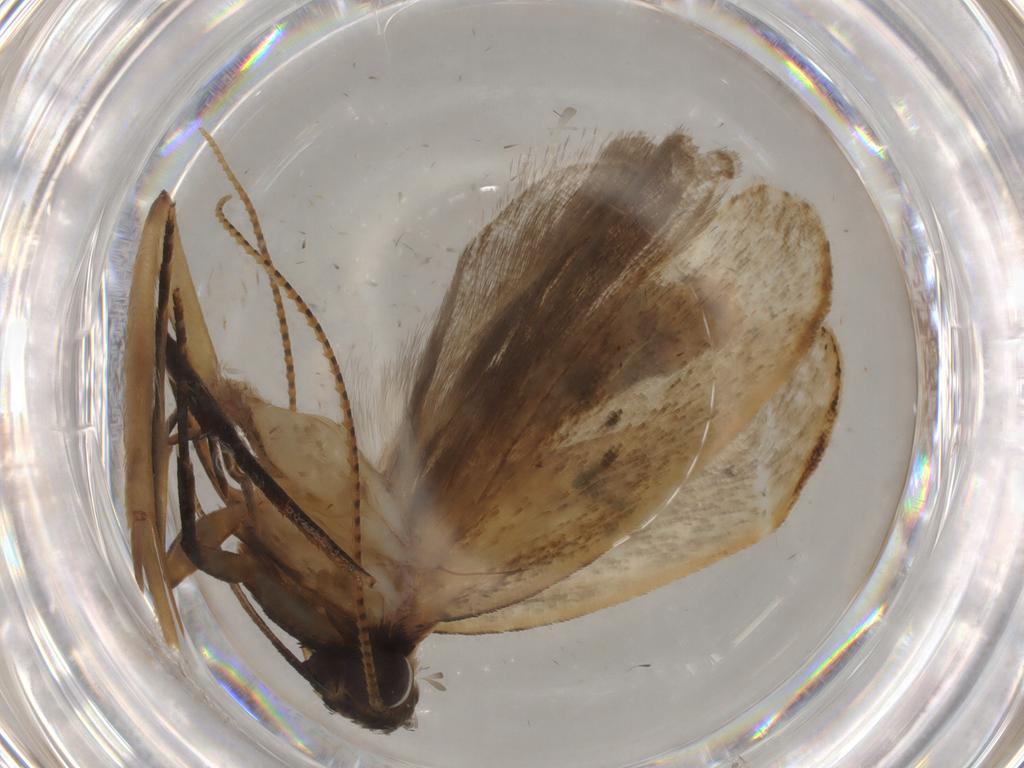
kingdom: Animalia
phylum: Arthropoda
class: Insecta
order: Lepidoptera
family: Gelechiidae
